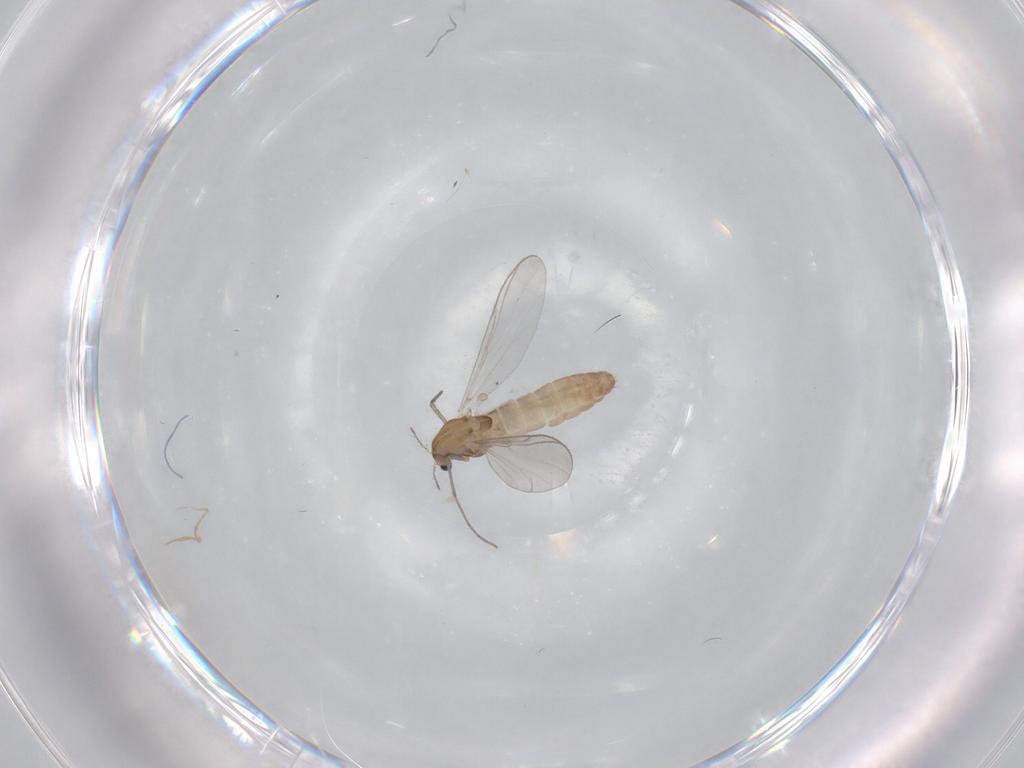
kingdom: Animalia
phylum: Arthropoda
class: Insecta
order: Diptera
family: Chironomidae
